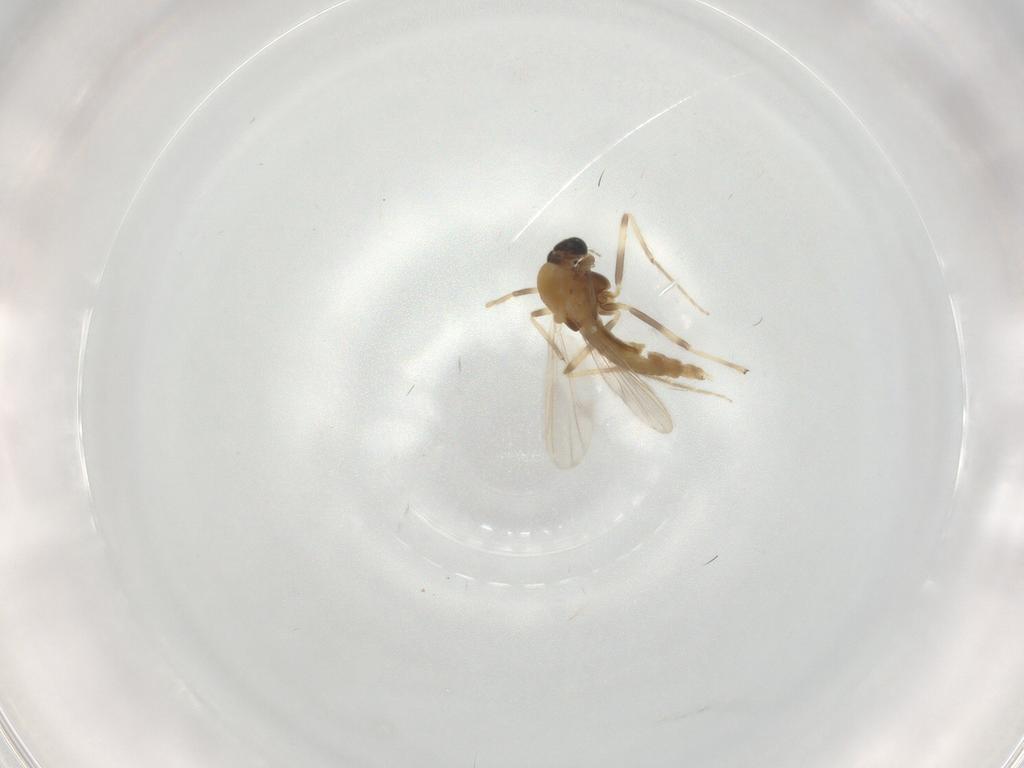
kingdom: Animalia
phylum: Arthropoda
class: Insecta
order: Diptera
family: Chironomidae
